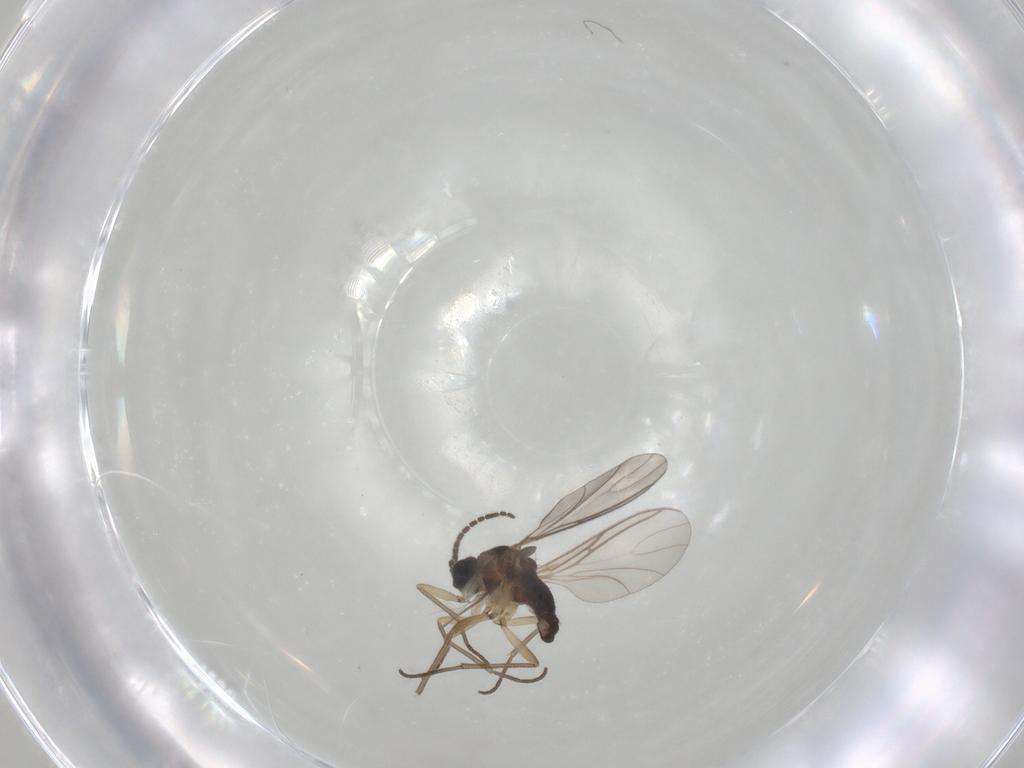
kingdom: Animalia
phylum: Arthropoda
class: Insecta
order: Diptera
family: Sciaridae
